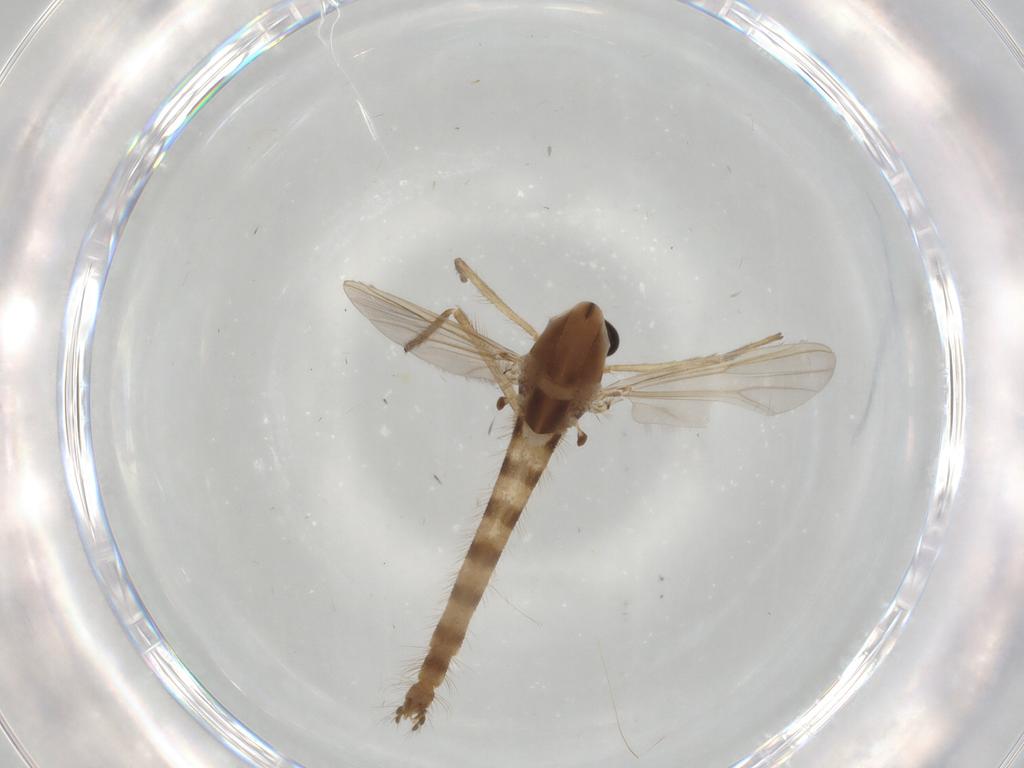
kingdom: Animalia
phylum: Arthropoda
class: Insecta
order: Diptera
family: Chironomidae
